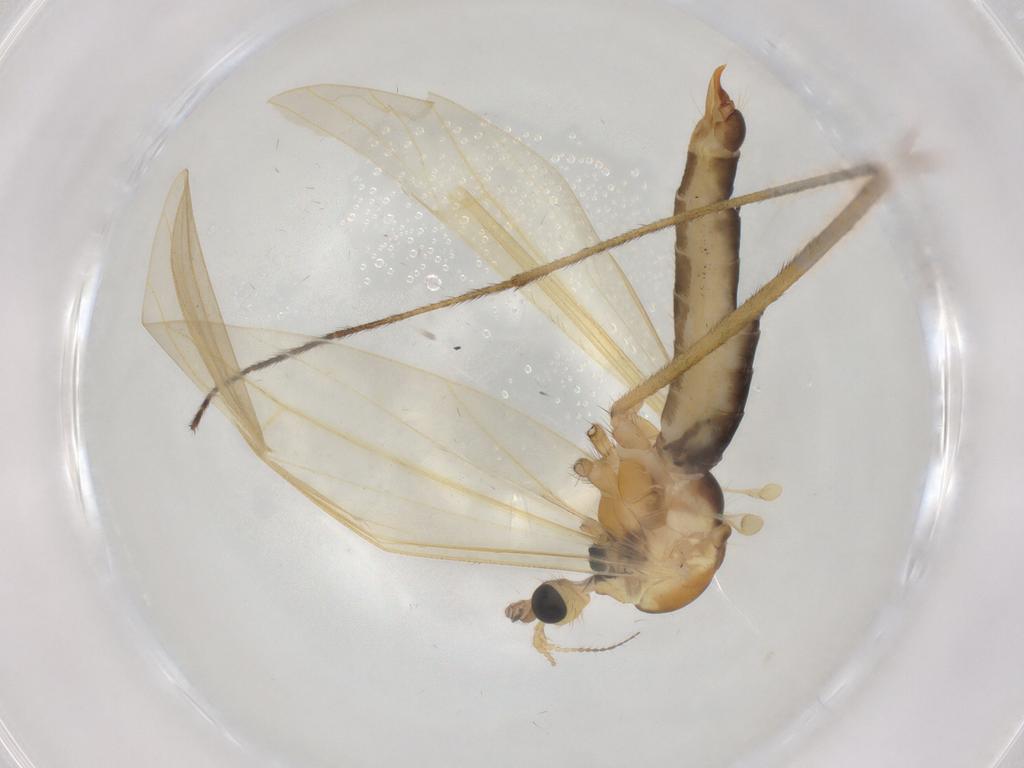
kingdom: Animalia
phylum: Arthropoda
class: Insecta
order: Diptera
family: Limoniidae
